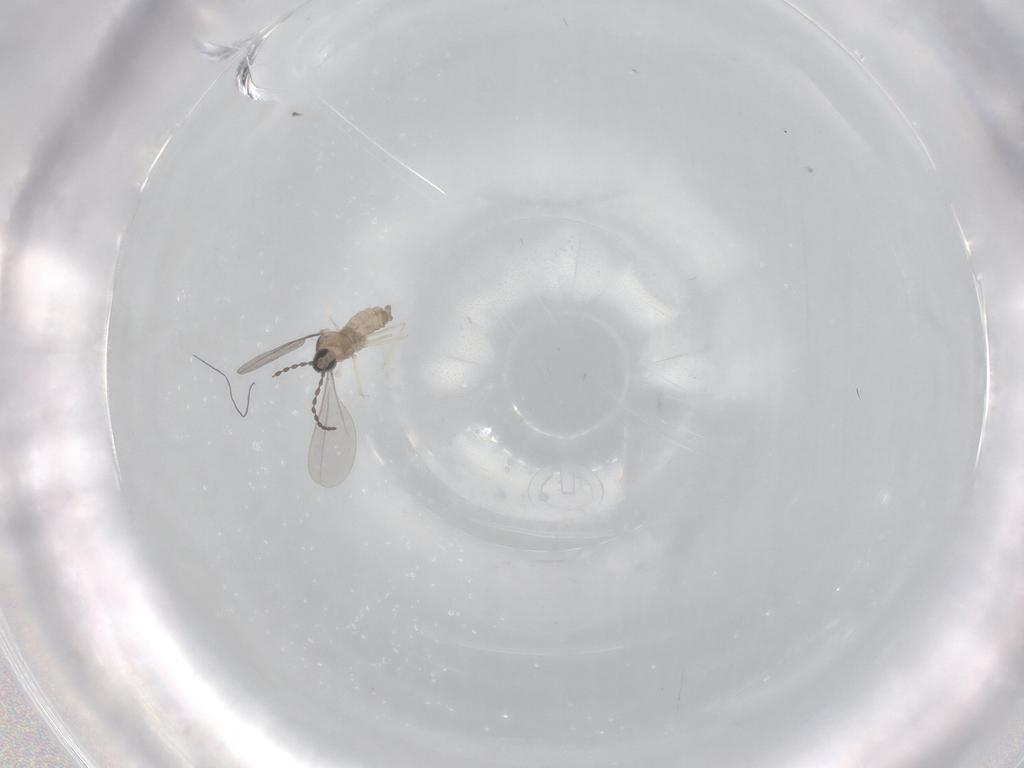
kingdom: Animalia
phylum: Arthropoda
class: Insecta
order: Diptera
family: Cecidomyiidae
